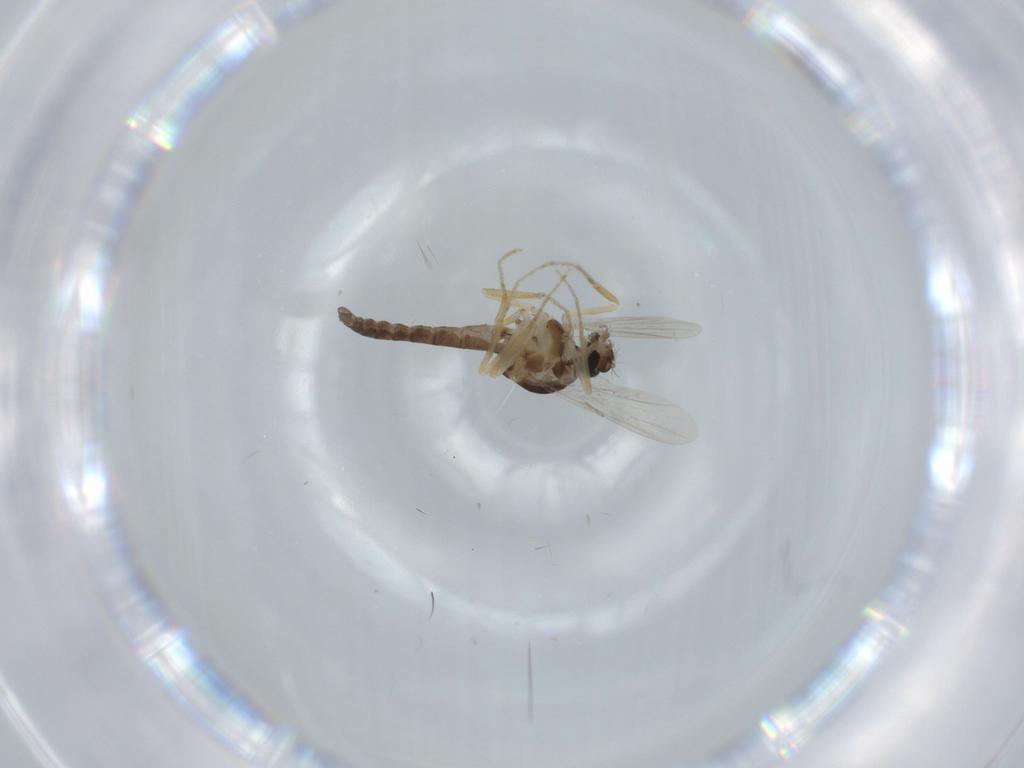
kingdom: Animalia
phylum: Arthropoda
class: Insecta
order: Diptera
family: Ceratopogonidae
